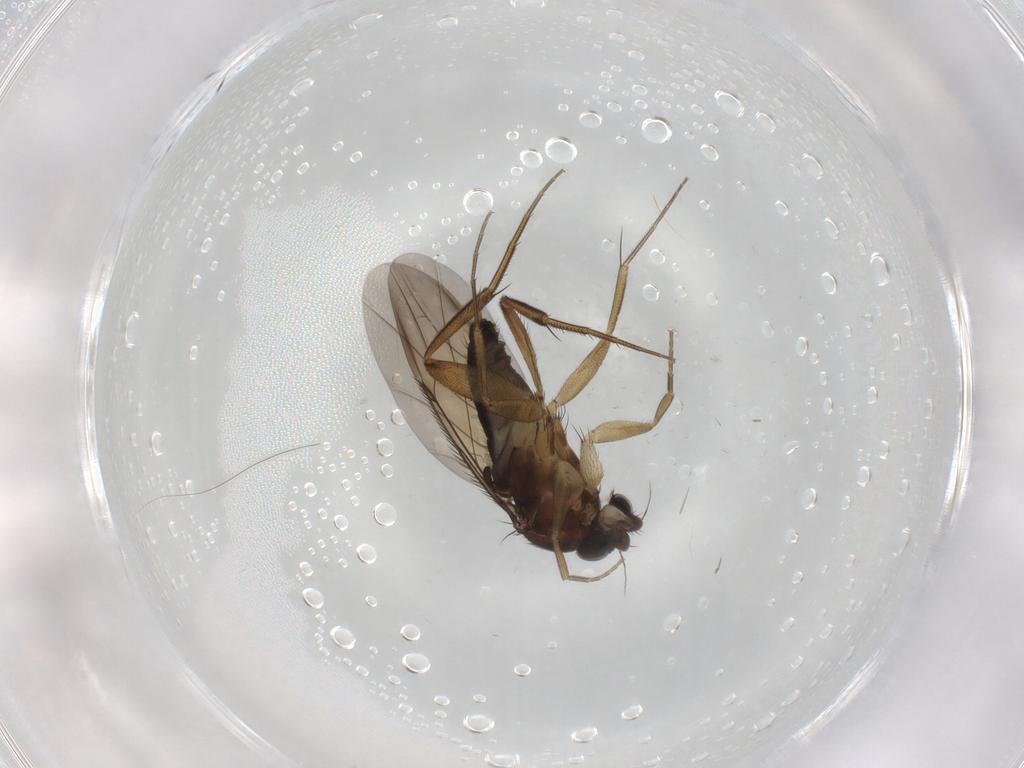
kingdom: Animalia
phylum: Arthropoda
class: Insecta
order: Diptera
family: Phoridae
